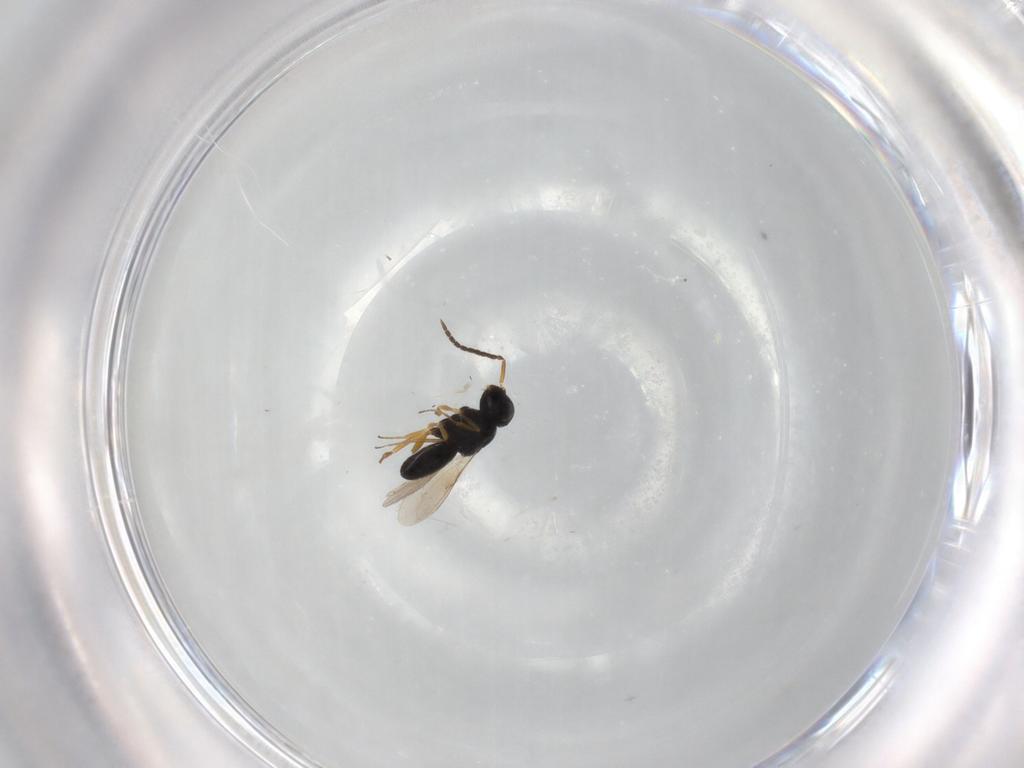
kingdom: Animalia
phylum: Arthropoda
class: Insecta
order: Hymenoptera
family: Scelionidae
